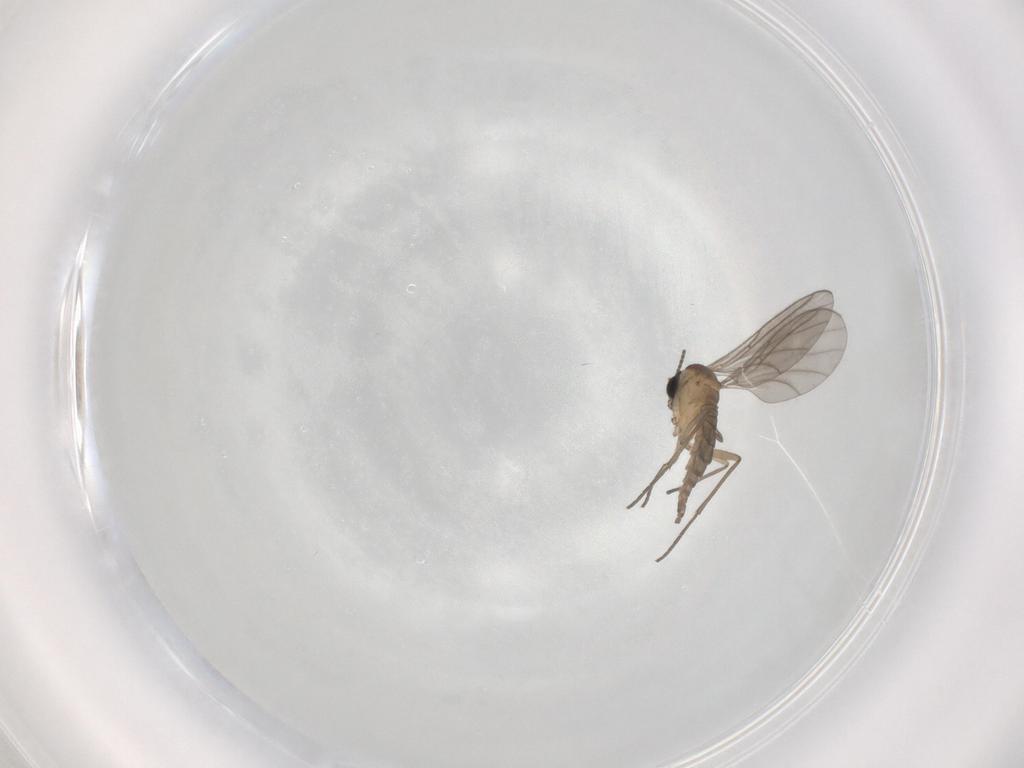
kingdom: Animalia
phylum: Arthropoda
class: Insecta
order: Diptera
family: Sciaridae
